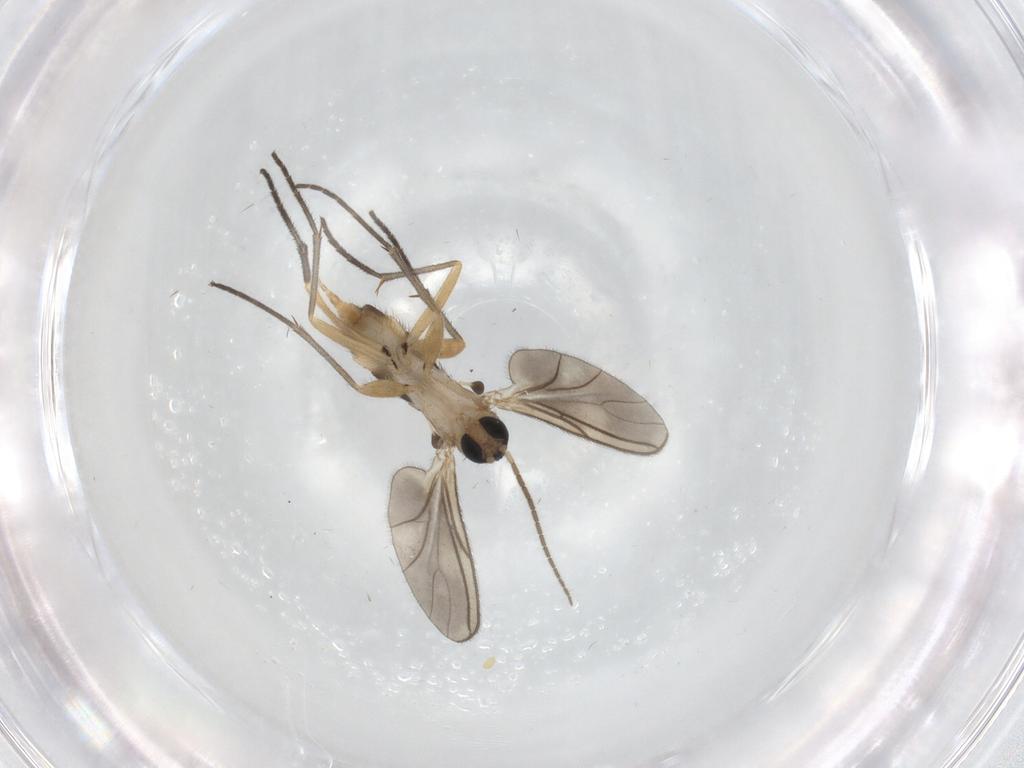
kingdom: Animalia
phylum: Arthropoda
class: Insecta
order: Diptera
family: Sciaridae
